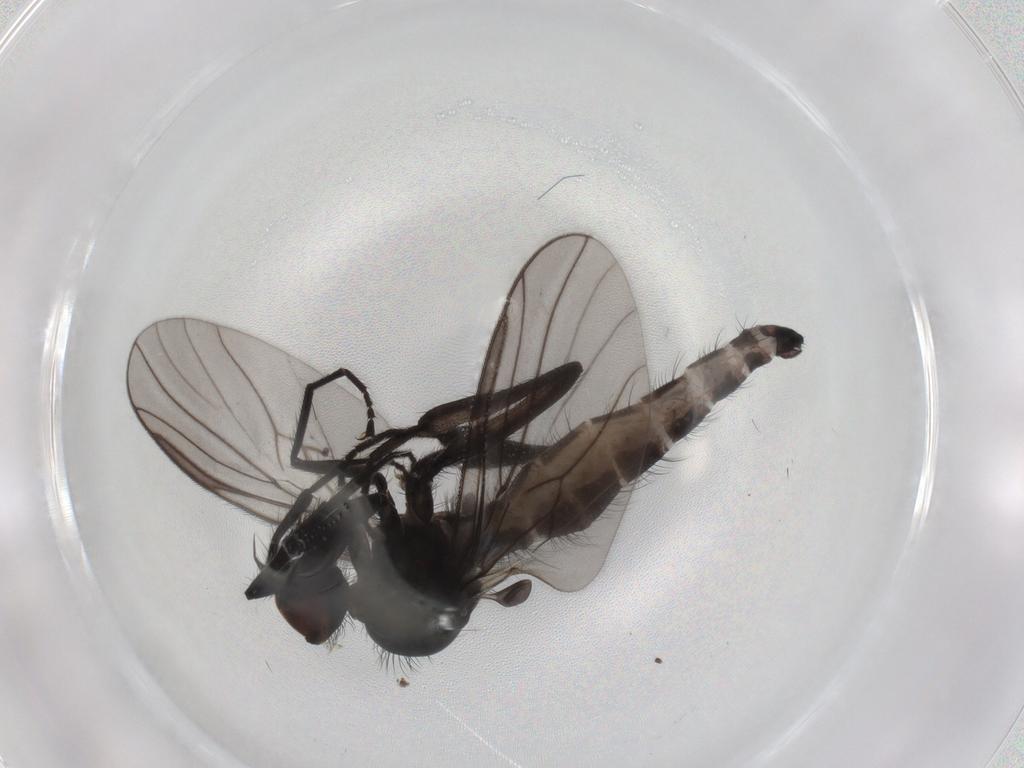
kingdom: Animalia
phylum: Arthropoda
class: Insecta
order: Diptera
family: Hybotidae
